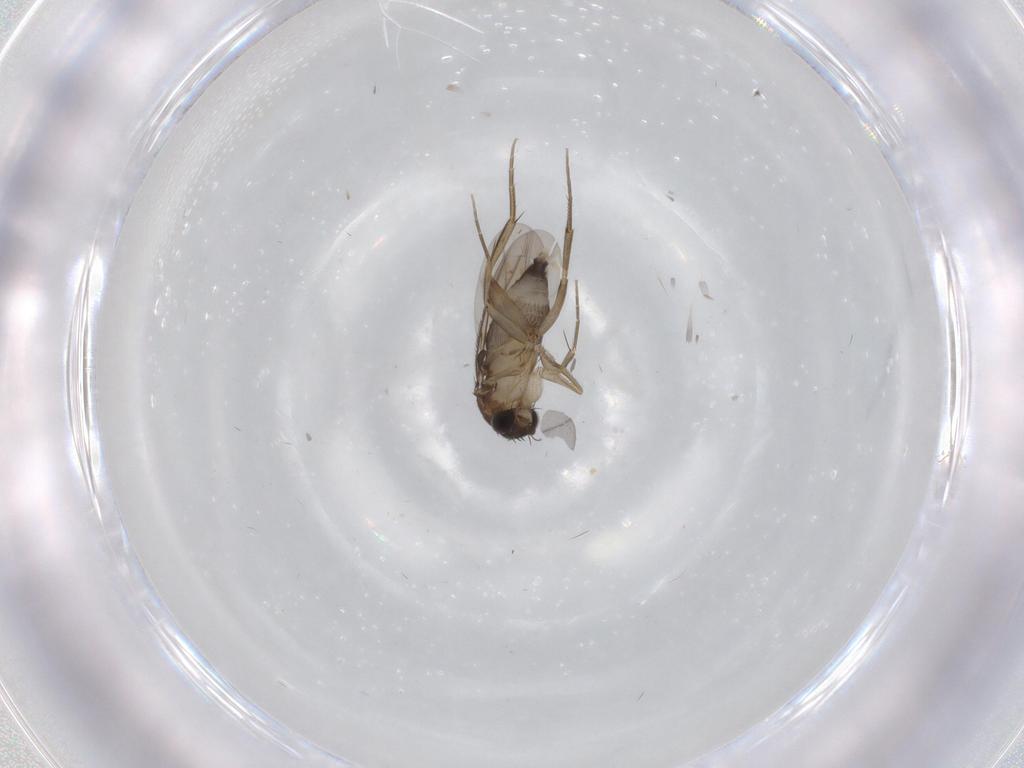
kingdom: Animalia
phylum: Arthropoda
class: Insecta
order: Diptera
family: Phoridae
